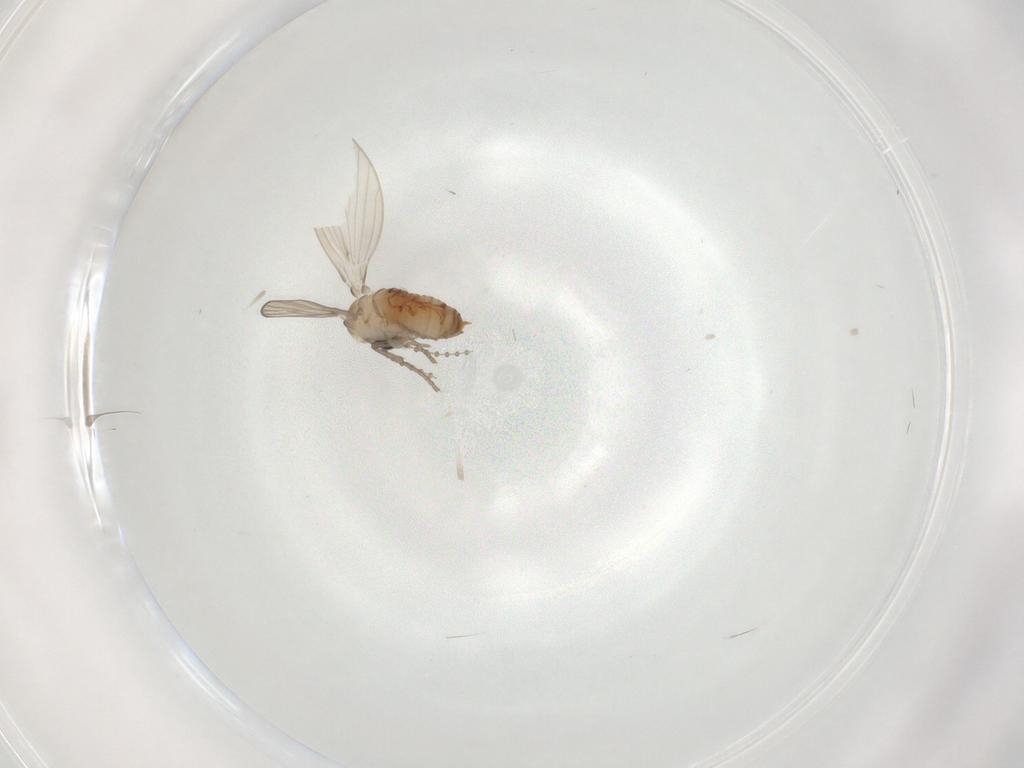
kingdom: Animalia
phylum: Arthropoda
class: Insecta
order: Diptera
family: Psychodidae
